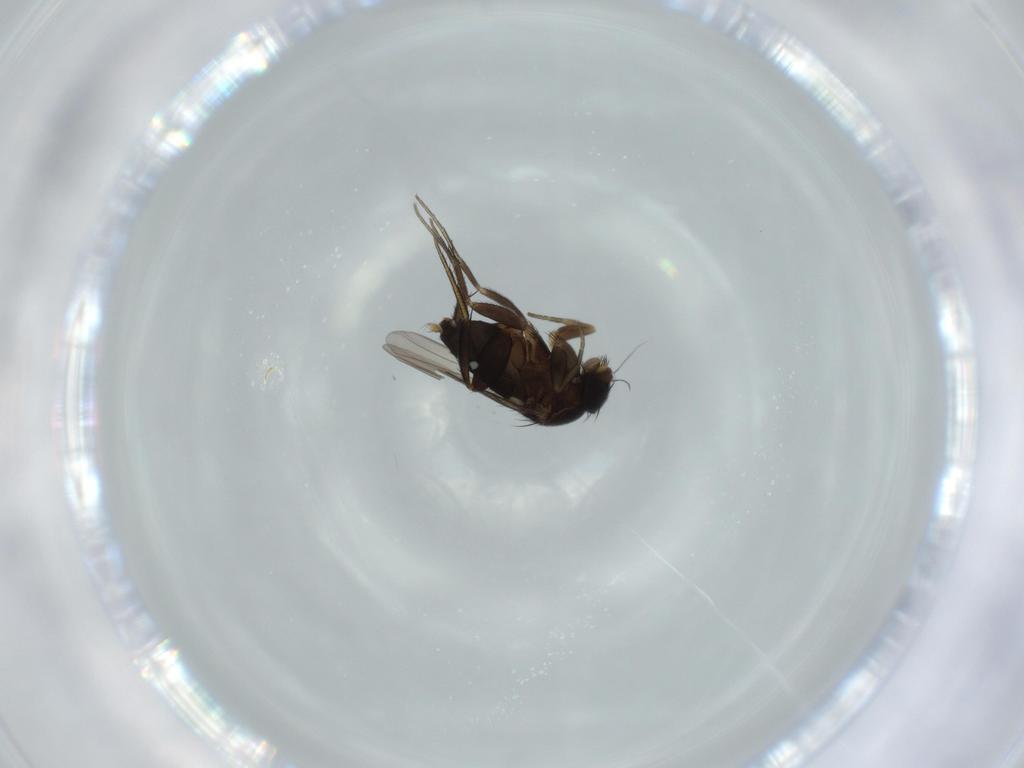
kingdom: Animalia
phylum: Arthropoda
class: Insecta
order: Diptera
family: Phoridae
